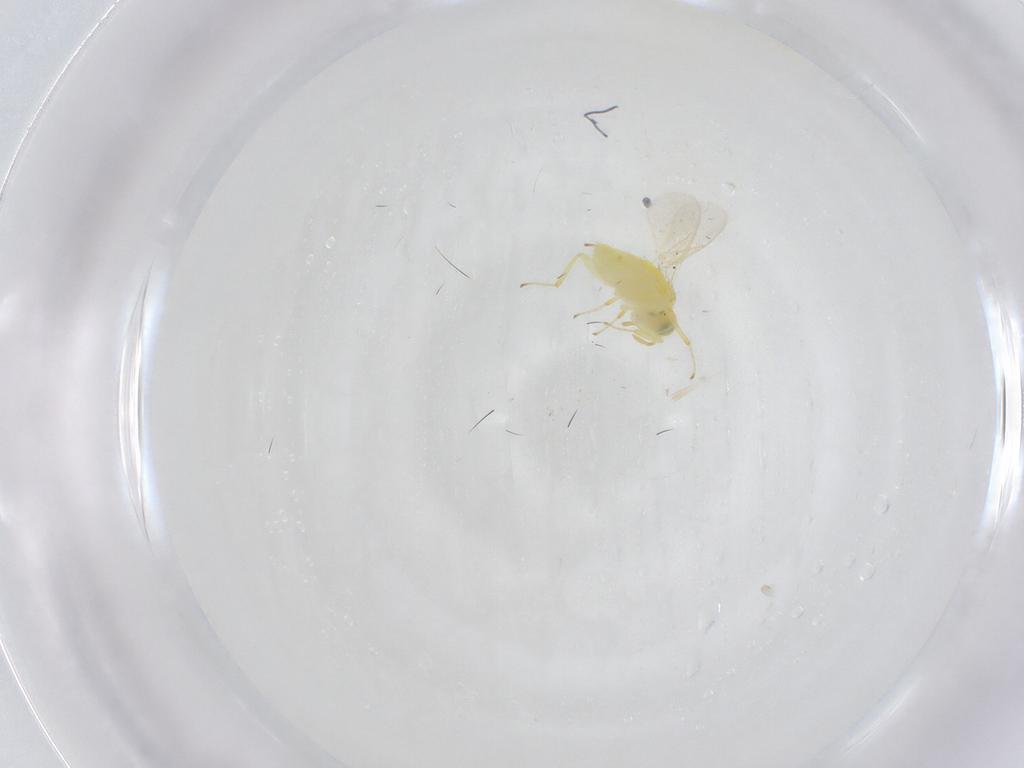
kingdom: Animalia
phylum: Arthropoda
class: Insecta
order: Hymenoptera
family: Aphelinidae
